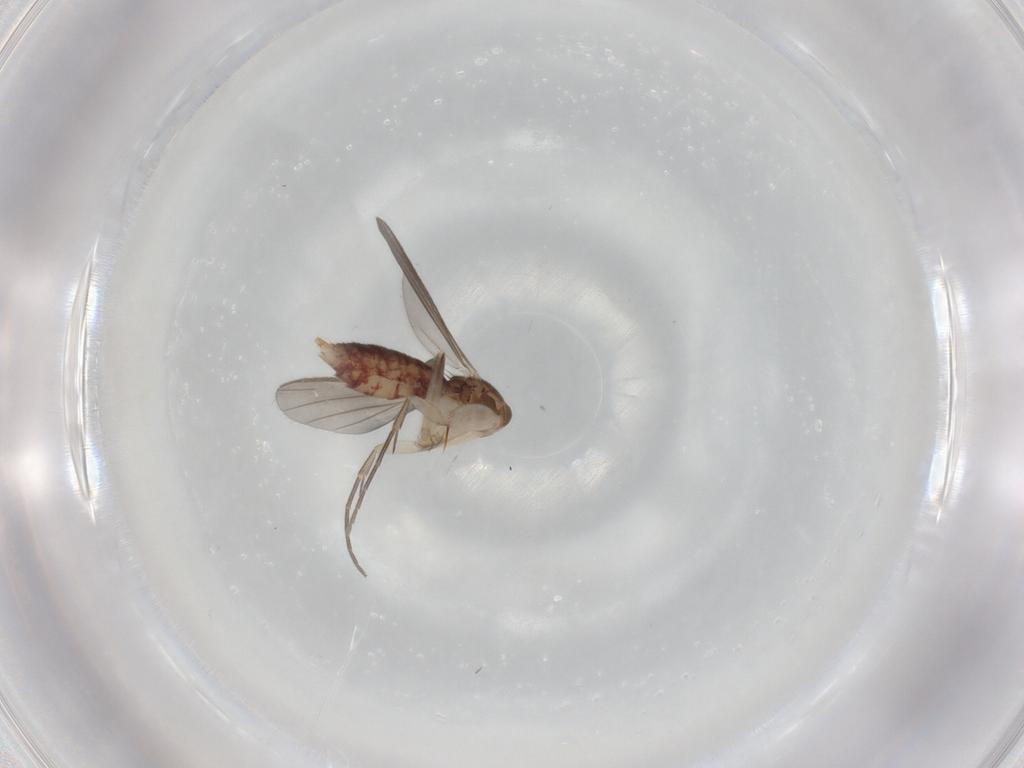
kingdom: Animalia
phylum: Arthropoda
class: Insecta
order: Diptera
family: Mycetophilidae
